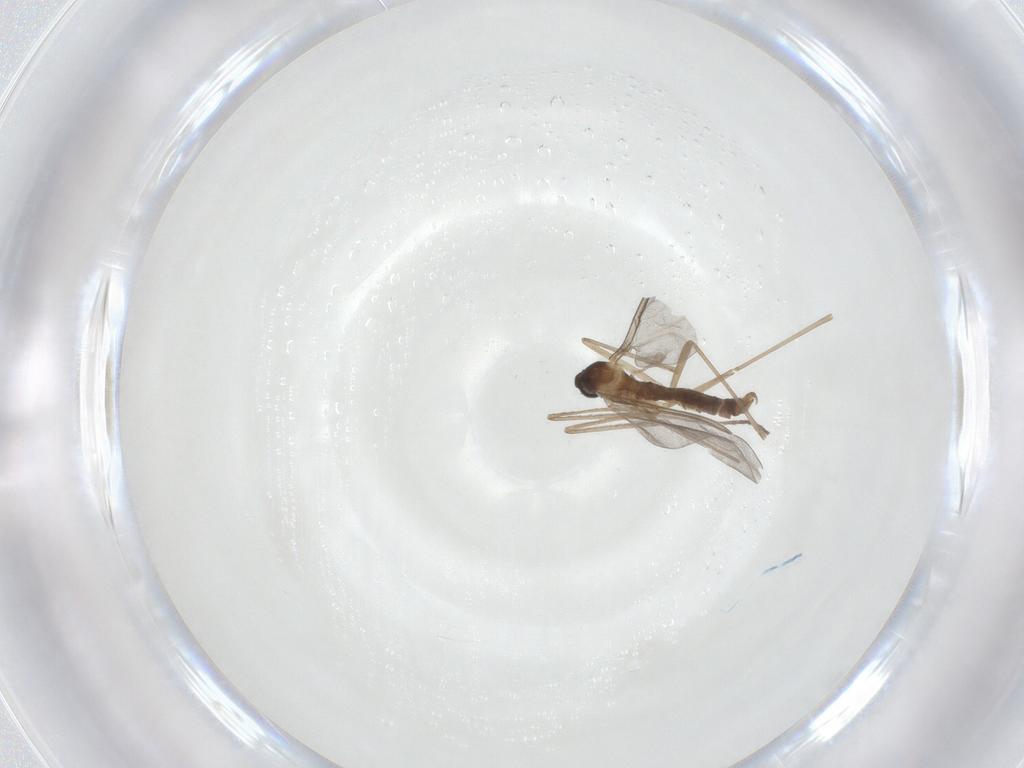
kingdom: Animalia
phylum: Arthropoda
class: Insecta
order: Diptera
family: Cecidomyiidae
